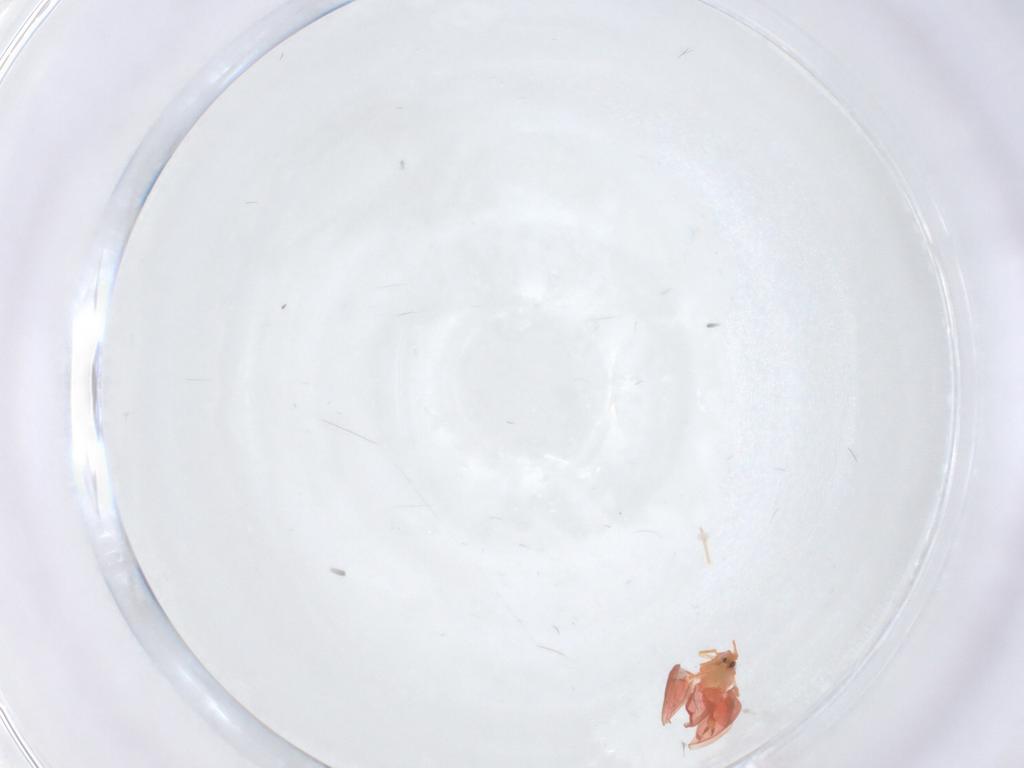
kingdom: Animalia
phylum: Arthropoda
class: Insecta
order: Hemiptera
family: Aleyrodidae
